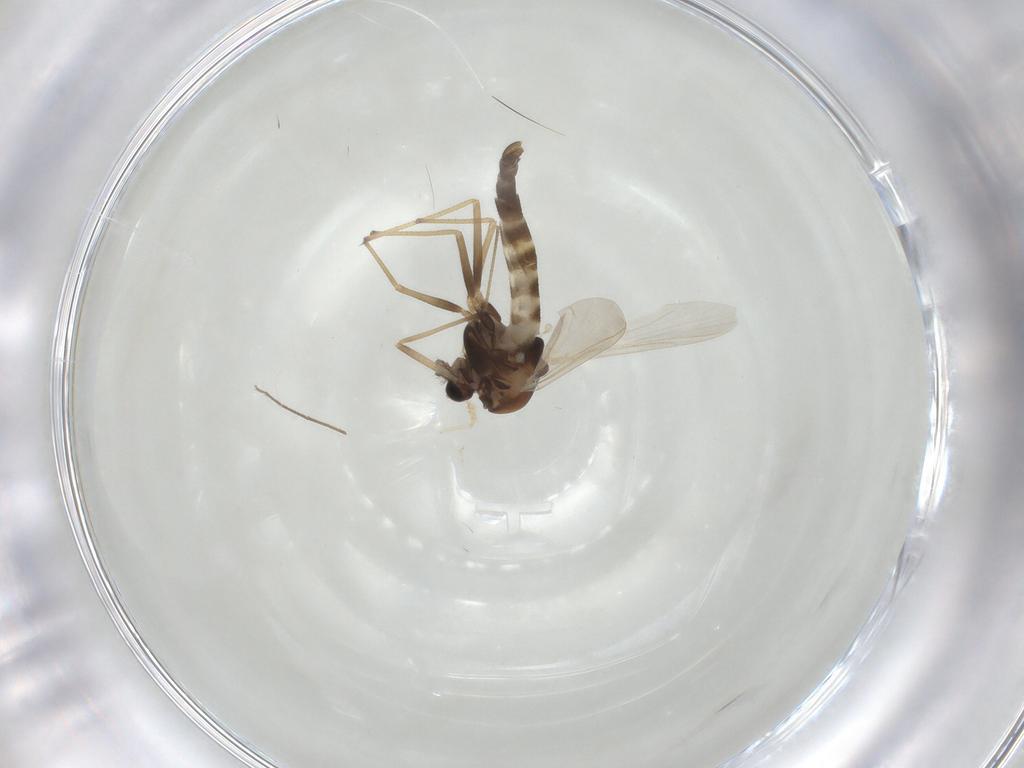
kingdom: Animalia
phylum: Arthropoda
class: Insecta
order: Diptera
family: Chironomidae
